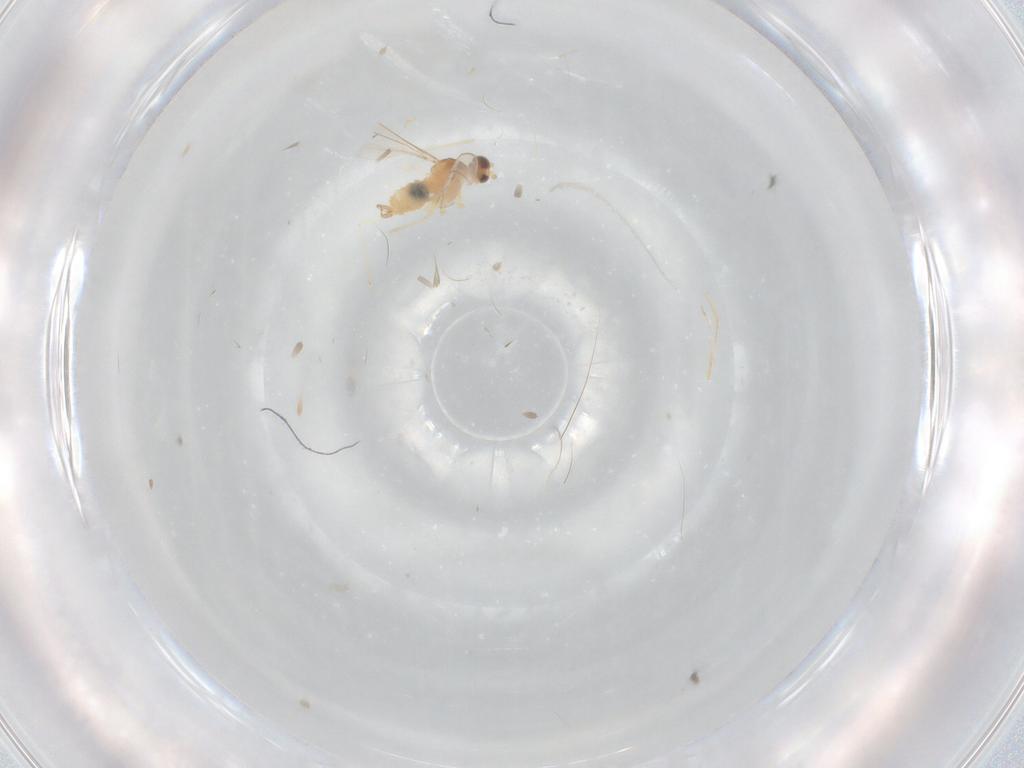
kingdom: Animalia
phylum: Arthropoda
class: Insecta
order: Diptera
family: Cecidomyiidae
